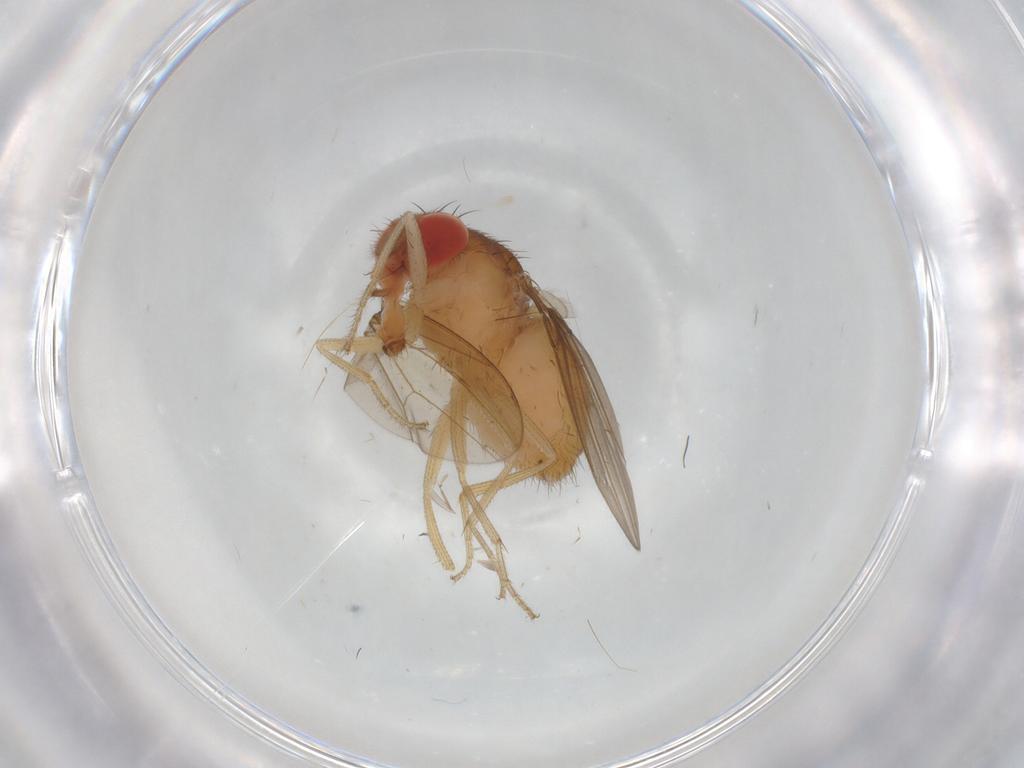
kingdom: Animalia
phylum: Arthropoda
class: Insecta
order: Diptera
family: Drosophilidae
